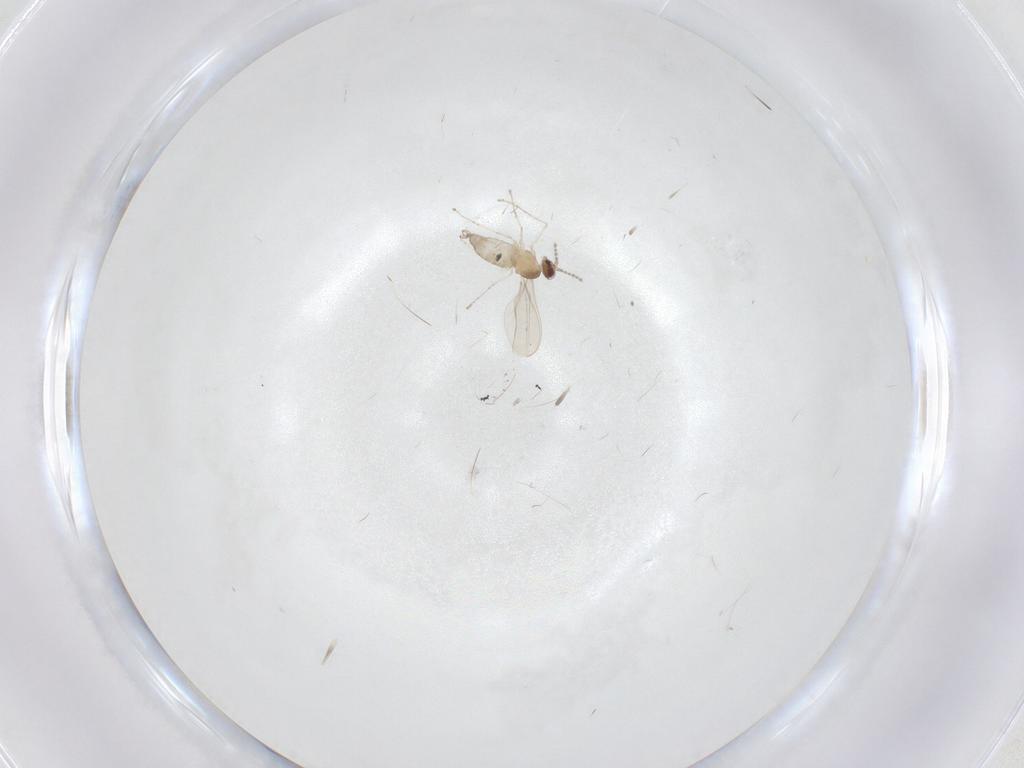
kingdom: Animalia
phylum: Arthropoda
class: Insecta
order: Diptera
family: Cecidomyiidae
